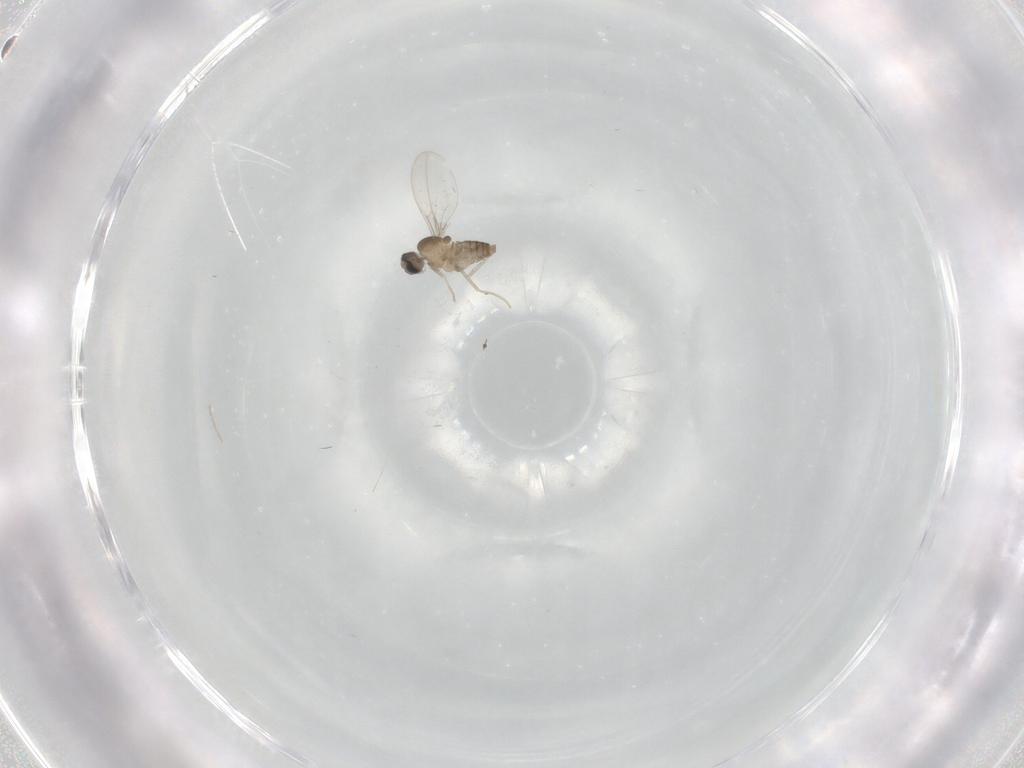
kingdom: Animalia
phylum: Arthropoda
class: Insecta
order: Diptera
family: Cecidomyiidae
